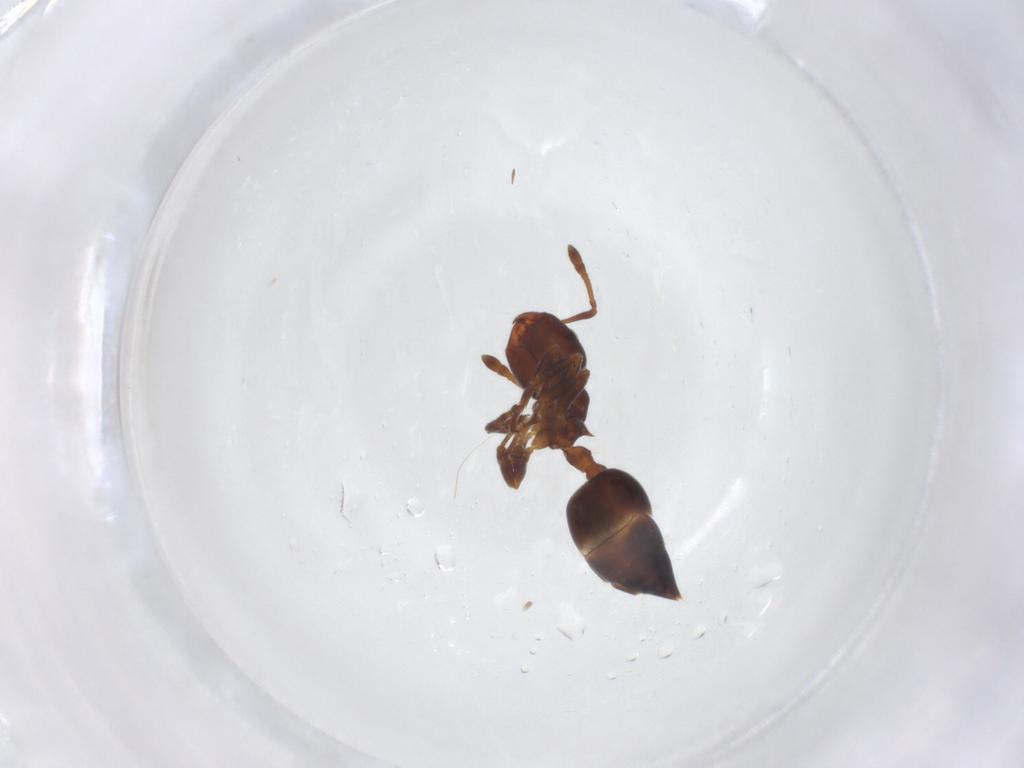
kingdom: Animalia
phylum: Arthropoda
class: Insecta
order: Hymenoptera
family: Formicidae
